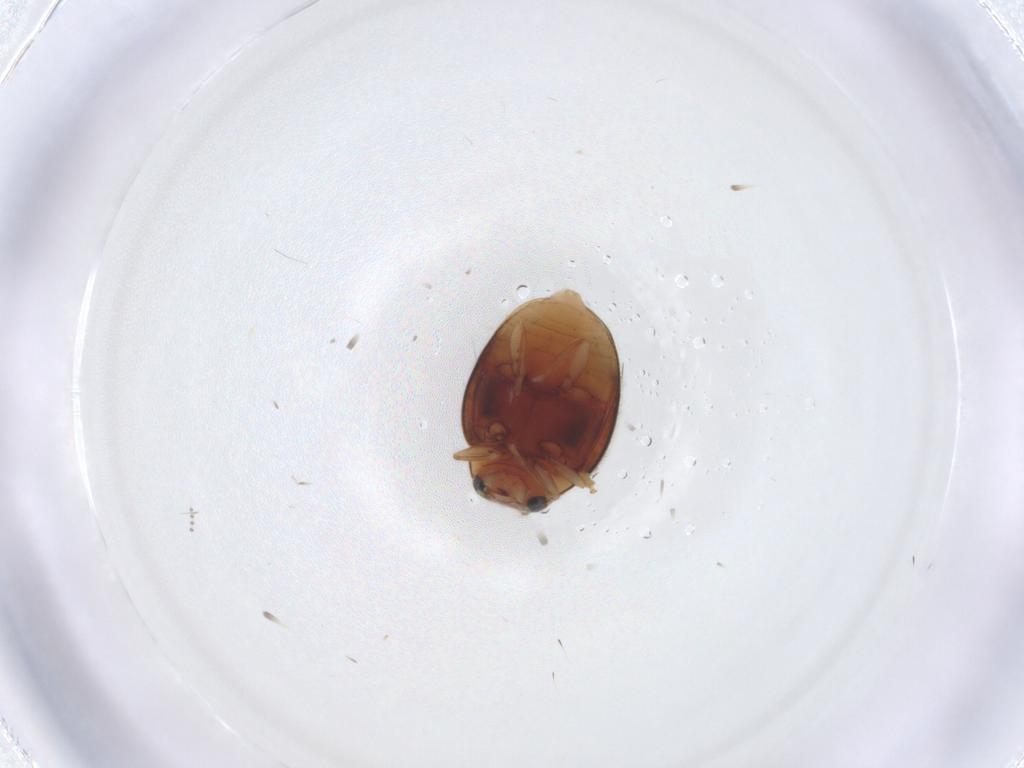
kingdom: Animalia
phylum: Arthropoda
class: Insecta
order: Coleoptera
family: Coccinellidae
